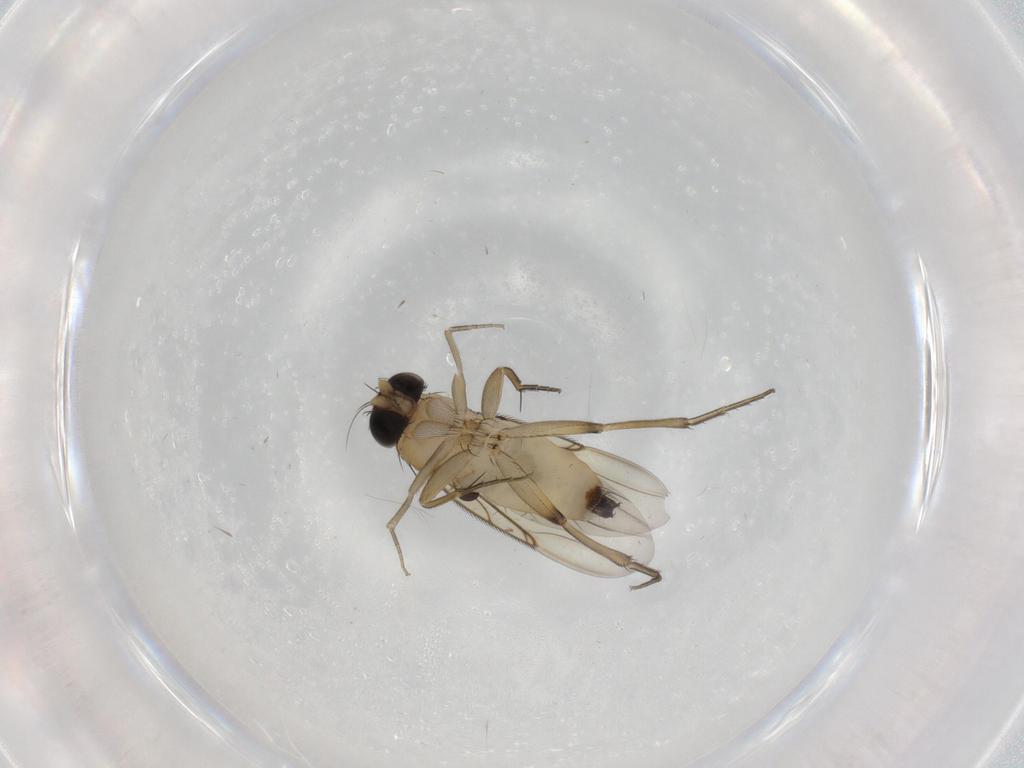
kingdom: Animalia
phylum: Arthropoda
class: Insecta
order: Diptera
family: Phoridae
